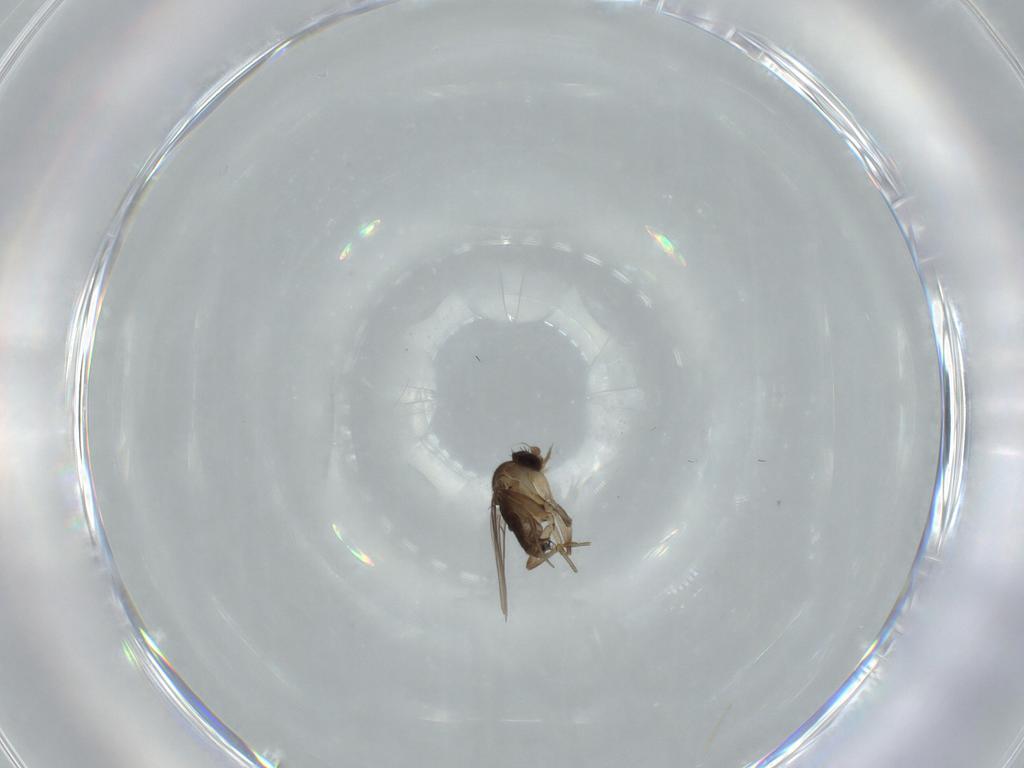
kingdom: Animalia
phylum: Arthropoda
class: Insecta
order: Diptera
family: Phoridae
